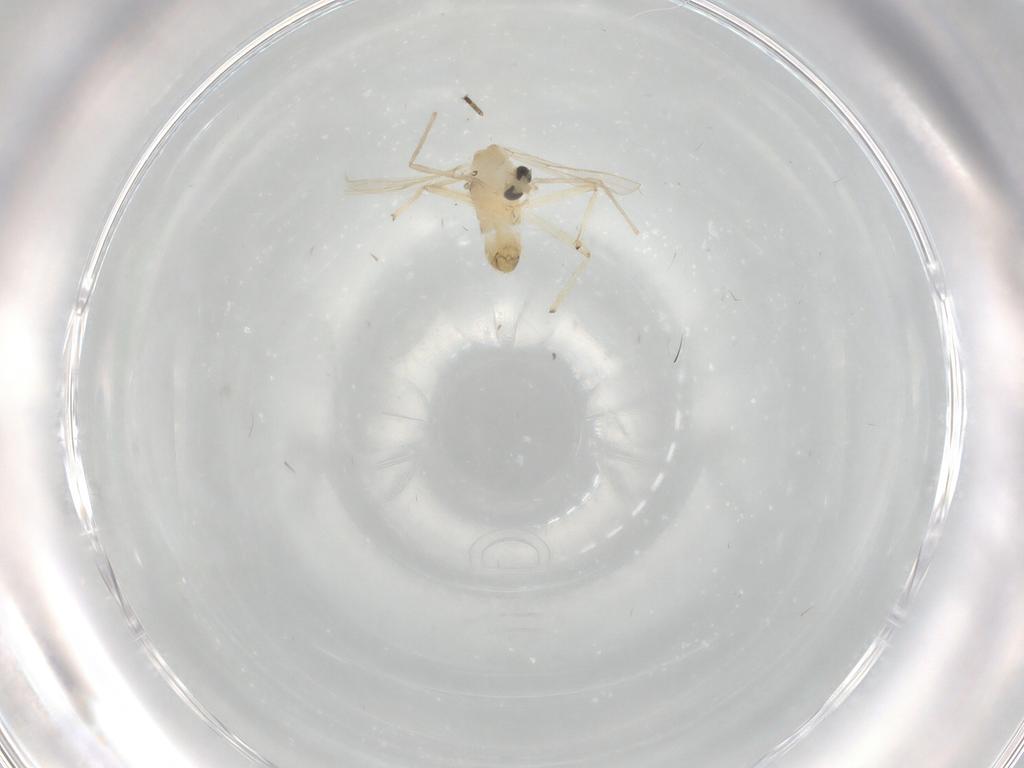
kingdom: Animalia
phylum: Arthropoda
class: Insecta
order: Diptera
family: Chironomidae
